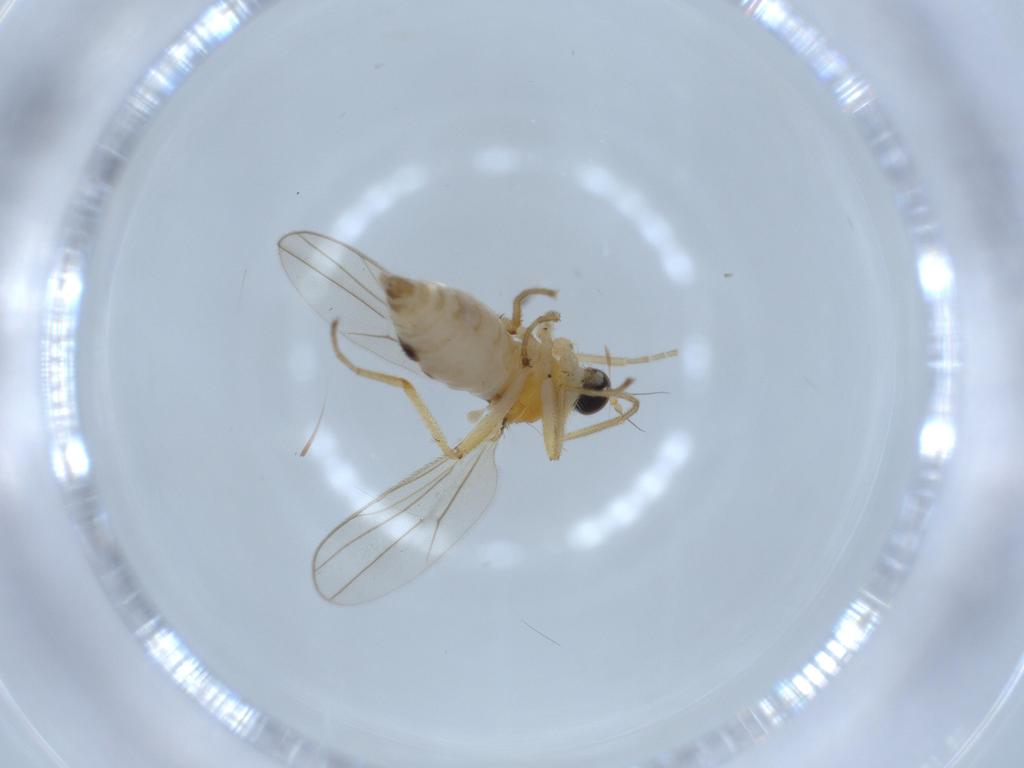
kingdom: Animalia
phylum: Arthropoda
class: Insecta
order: Diptera
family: Hybotidae
